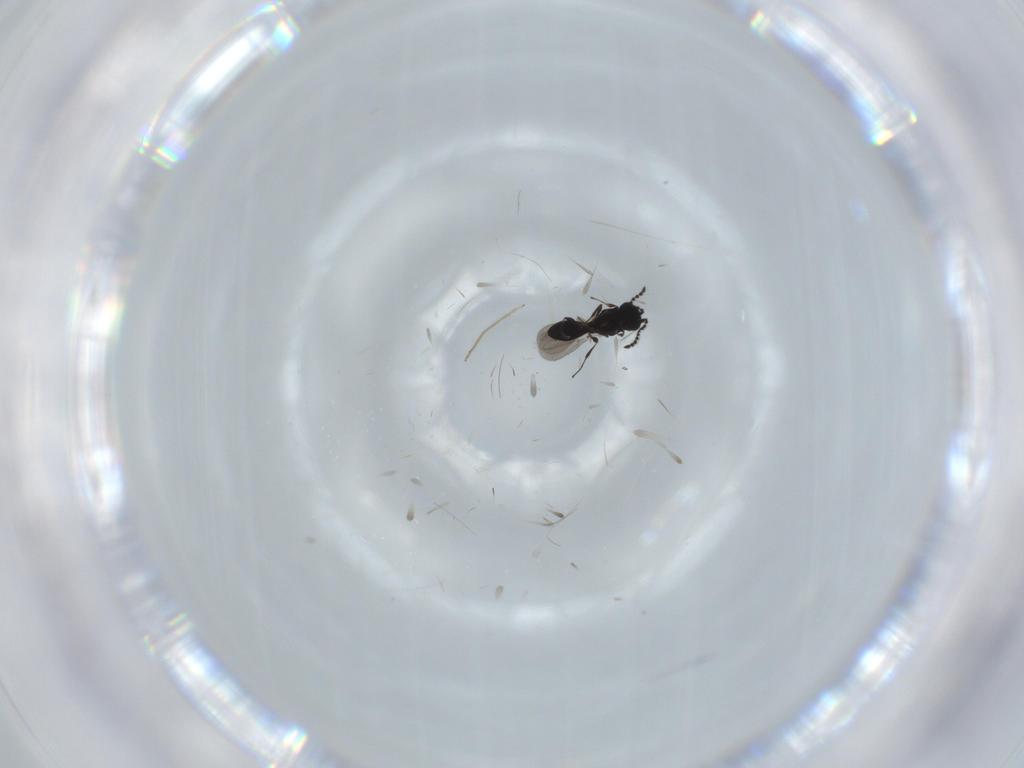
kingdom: Animalia
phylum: Arthropoda
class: Insecta
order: Hymenoptera
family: Platygastridae
